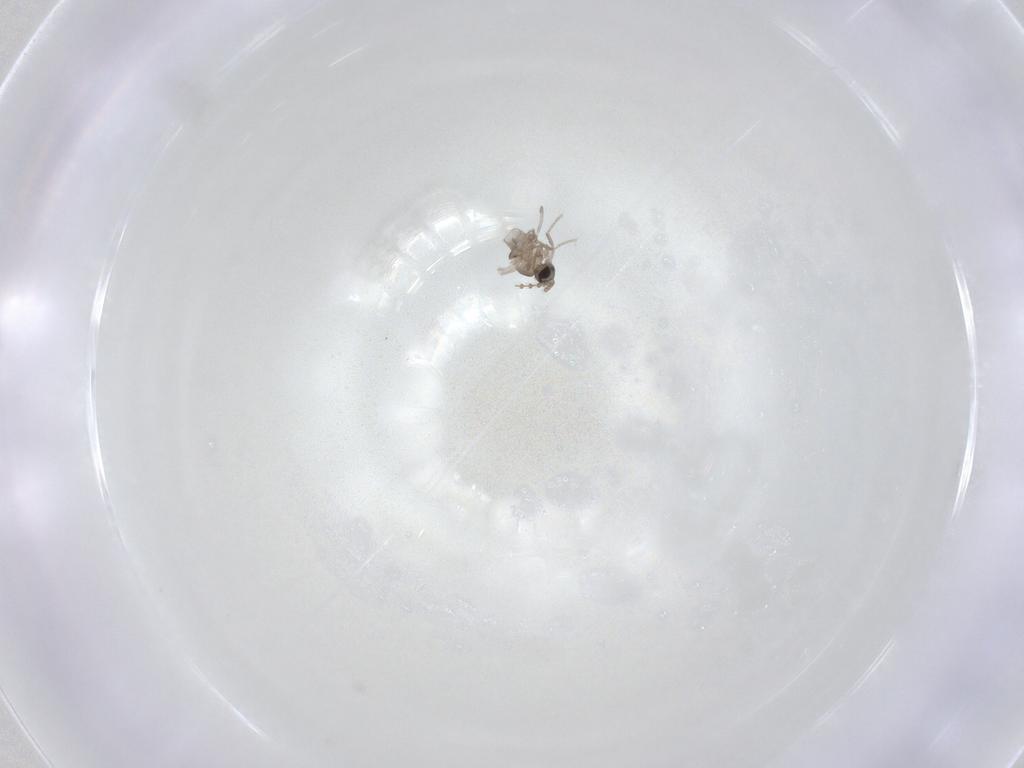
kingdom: Animalia
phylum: Arthropoda
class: Insecta
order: Diptera
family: Cecidomyiidae
